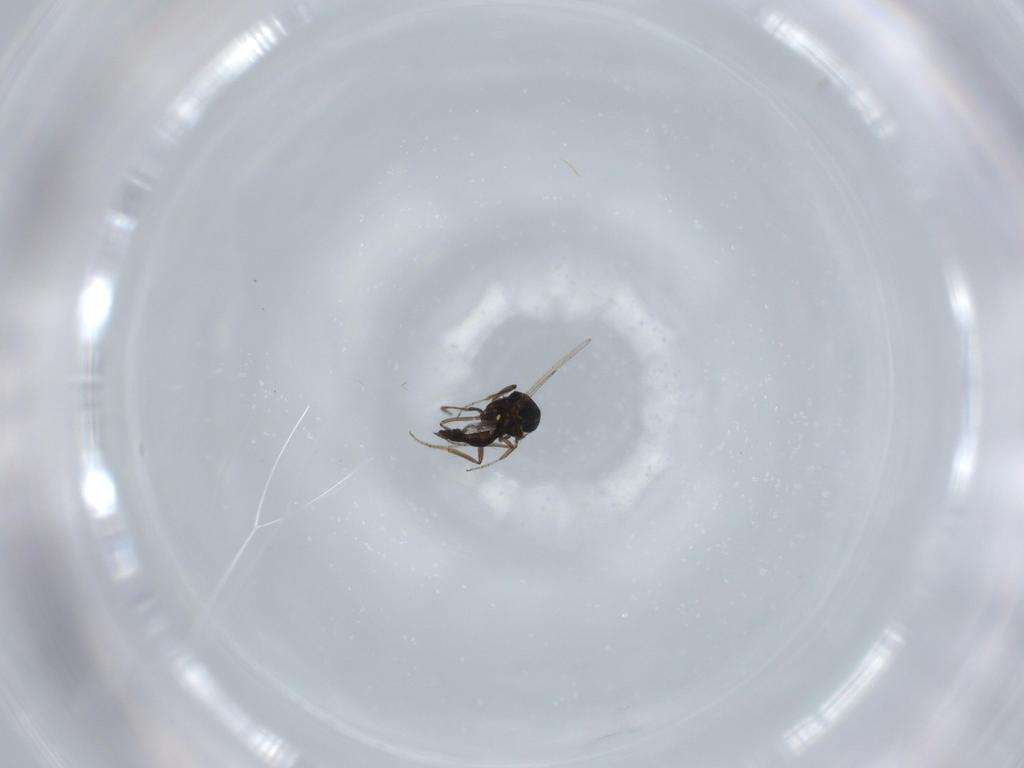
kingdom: Animalia
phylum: Arthropoda
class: Insecta
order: Diptera
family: Ceratopogonidae
